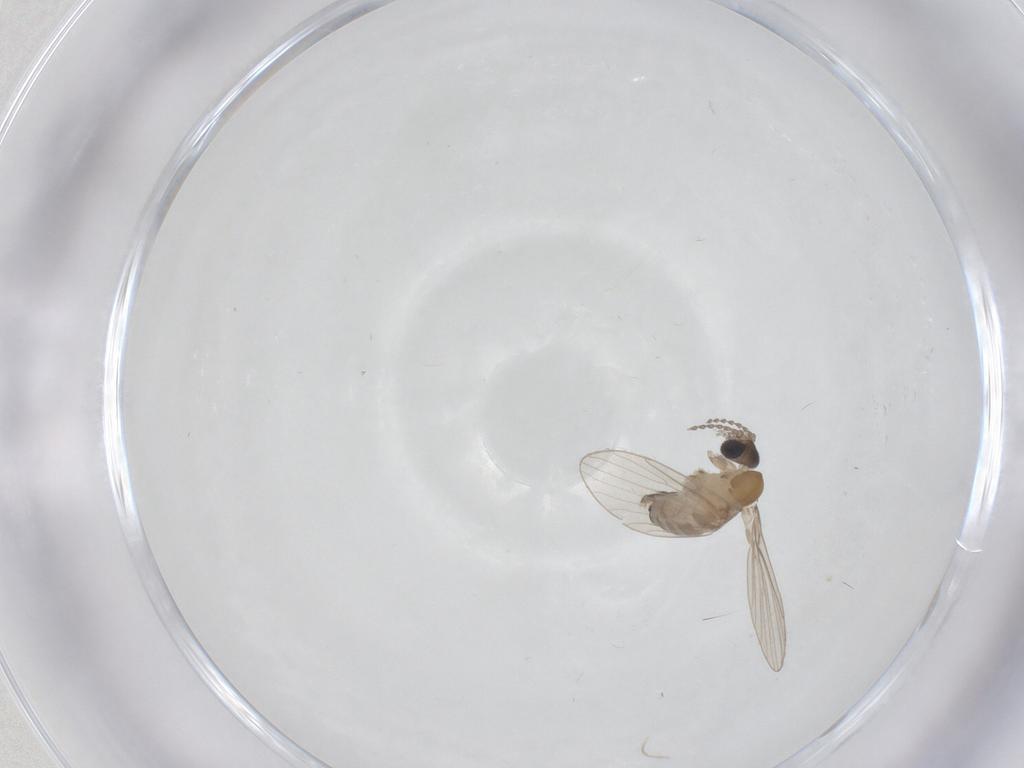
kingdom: Animalia
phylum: Arthropoda
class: Insecta
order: Diptera
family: Psychodidae
